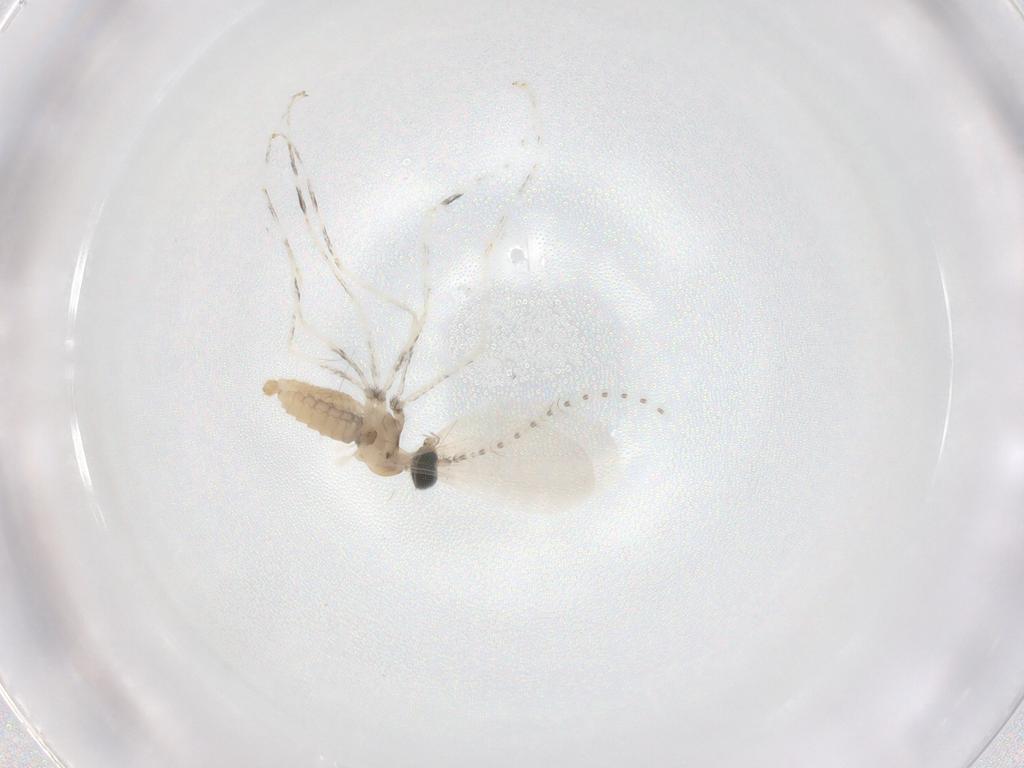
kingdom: Animalia
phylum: Arthropoda
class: Insecta
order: Diptera
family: Cecidomyiidae
